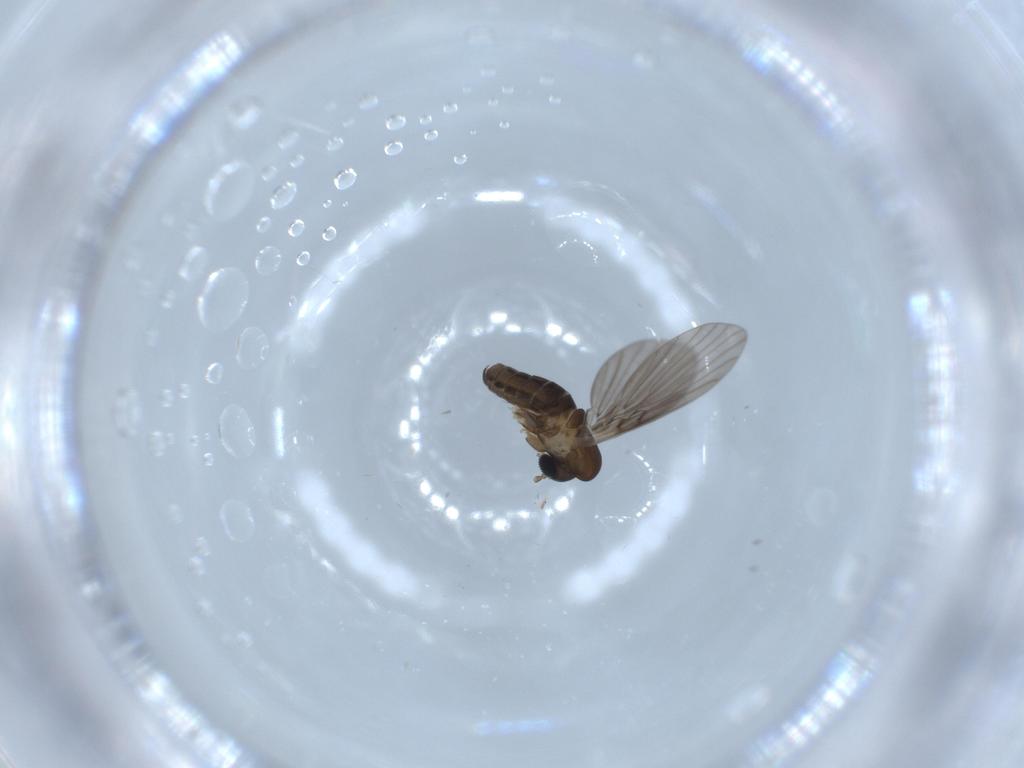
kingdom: Animalia
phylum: Arthropoda
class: Insecta
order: Diptera
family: Psychodidae
